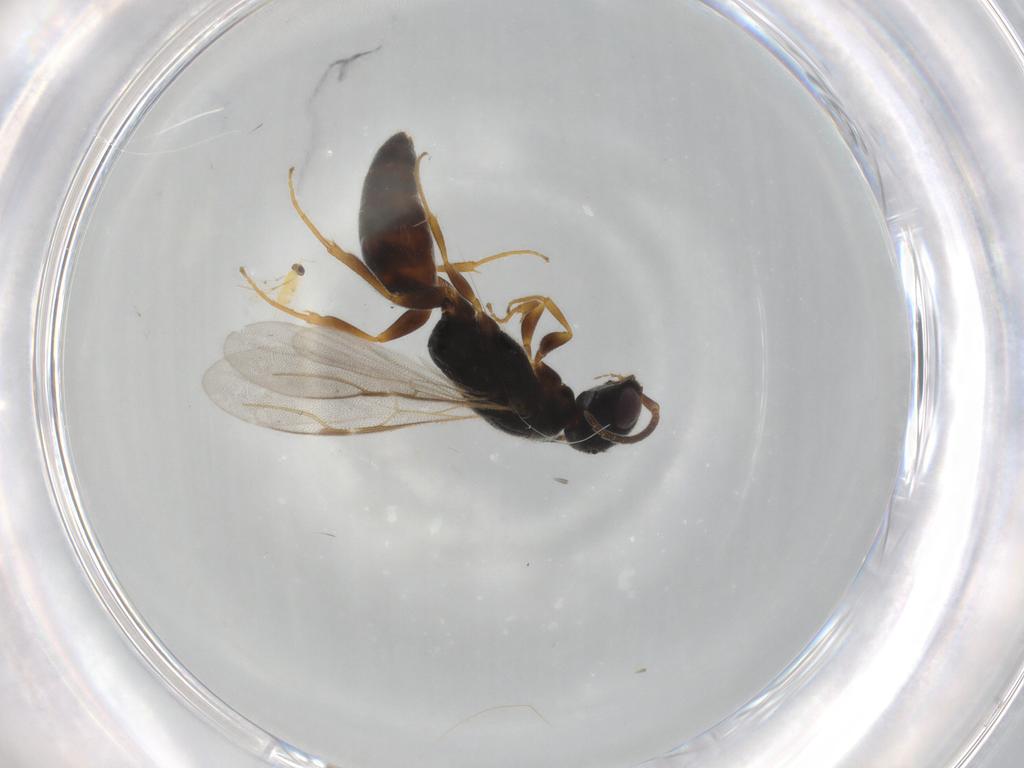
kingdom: Animalia
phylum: Arthropoda
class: Insecta
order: Hymenoptera
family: Trichogrammatidae
